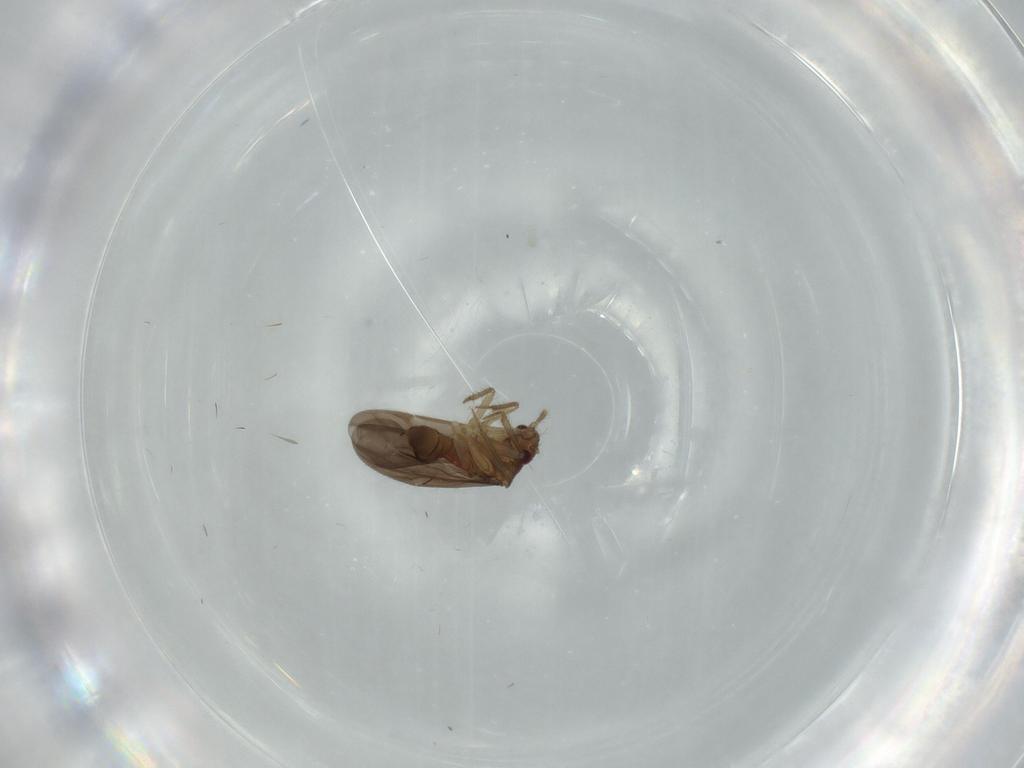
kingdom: Animalia
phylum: Arthropoda
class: Insecta
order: Hemiptera
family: Ceratocombidae
